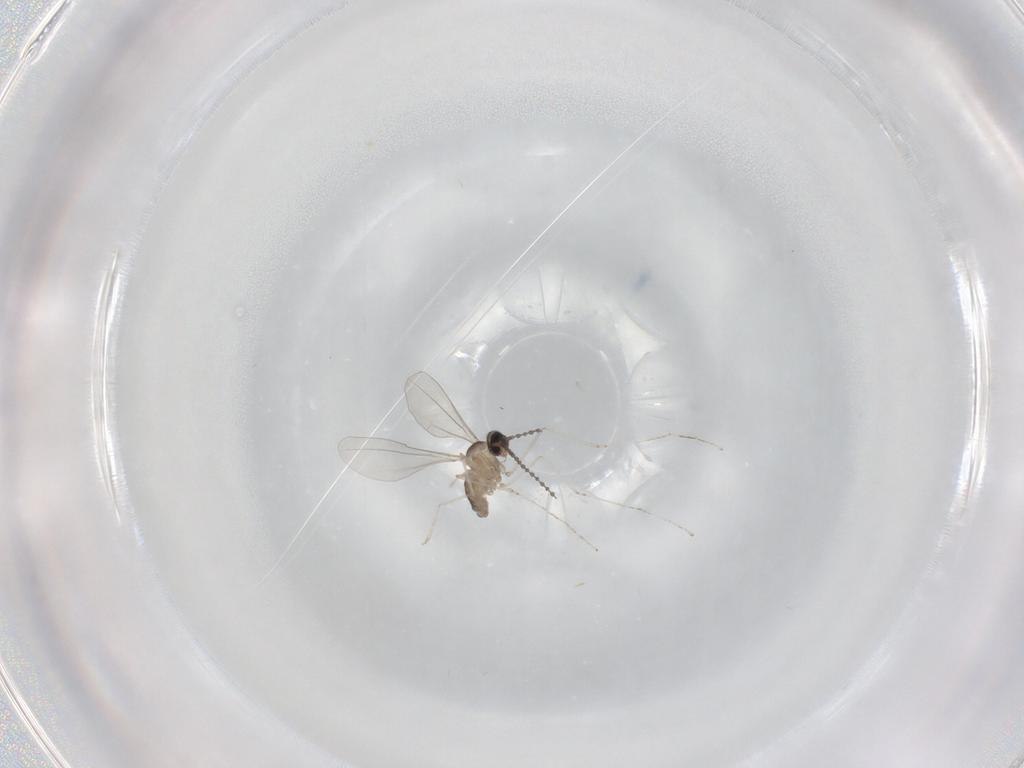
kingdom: Animalia
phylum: Arthropoda
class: Insecta
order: Diptera
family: Cecidomyiidae
